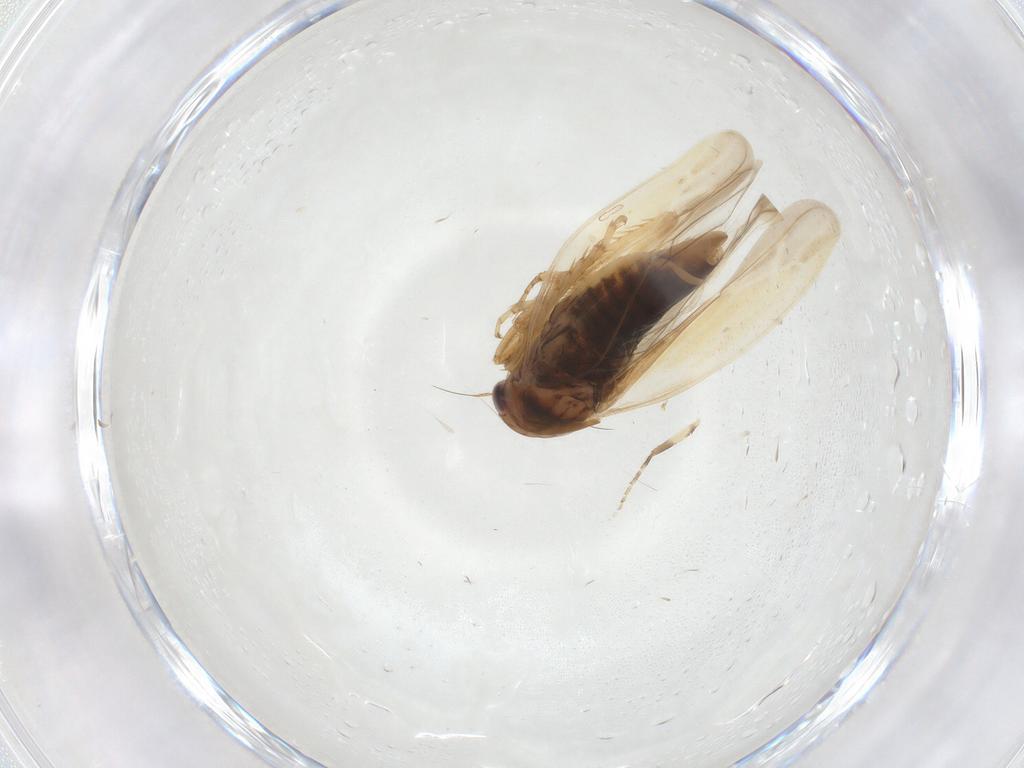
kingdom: Animalia
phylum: Arthropoda
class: Insecta
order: Hemiptera
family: Cicadellidae
